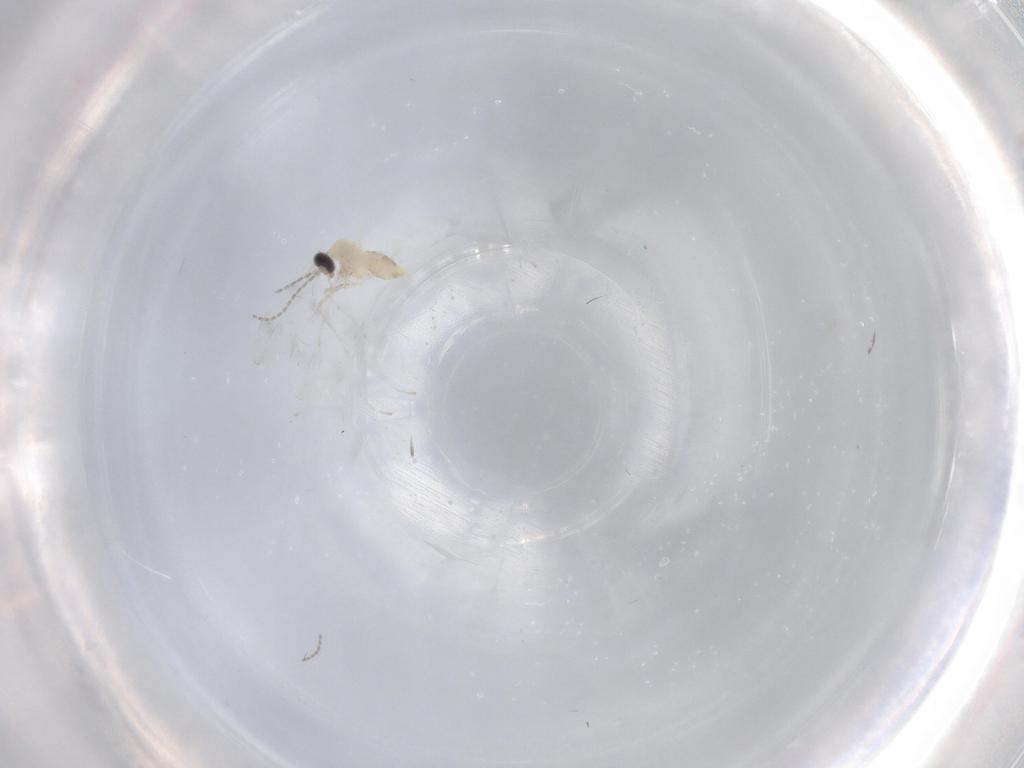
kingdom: Animalia
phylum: Arthropoda
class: Insecta
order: Diptera
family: Cecidomyiidae
